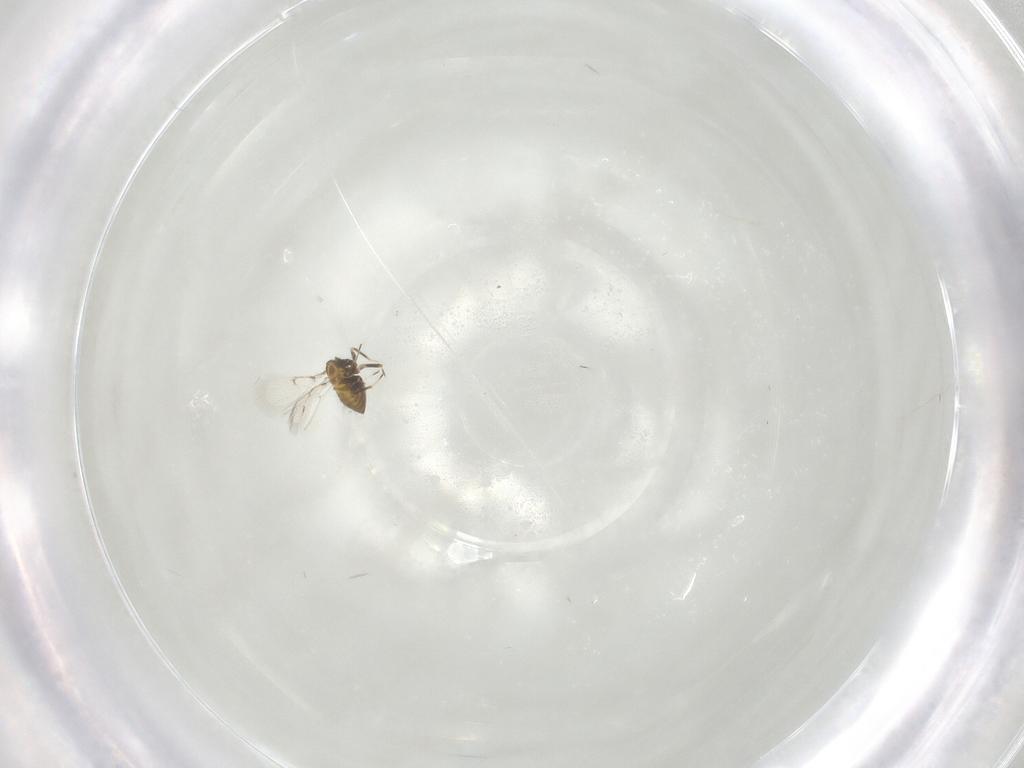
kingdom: Animalia
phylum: Arthropoda
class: Insecta
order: Hymenoptera
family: Trichogrammatidae
